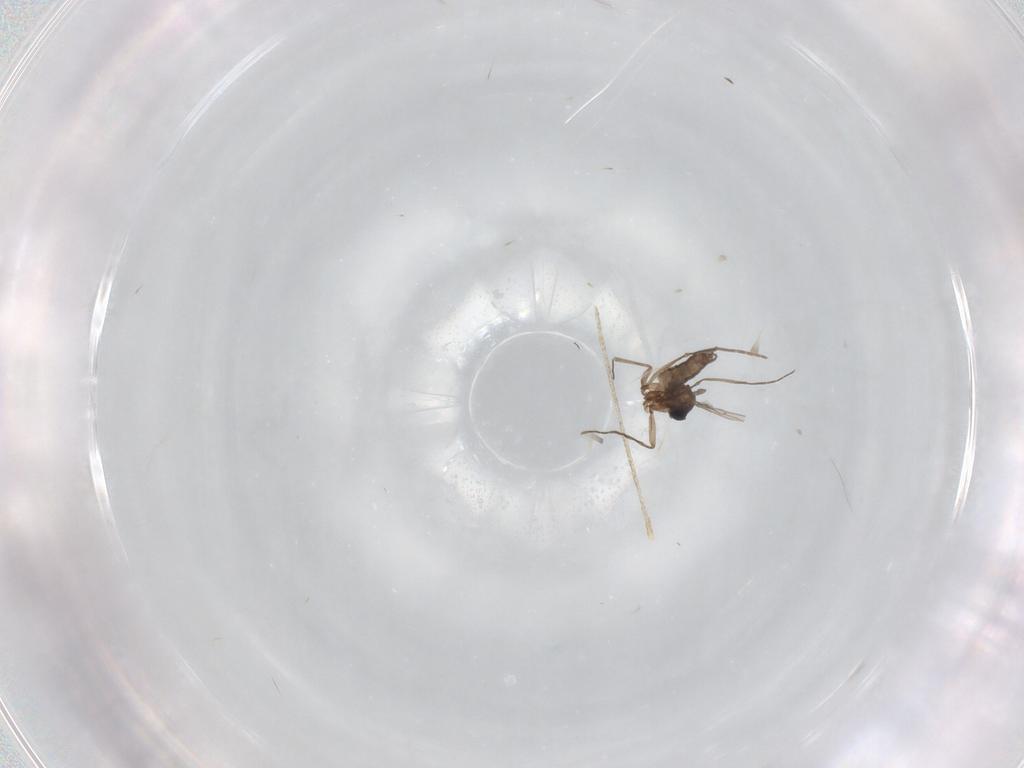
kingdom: Animalia
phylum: Arthropoda
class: Insecta
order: Diptera
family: Sciaridae
